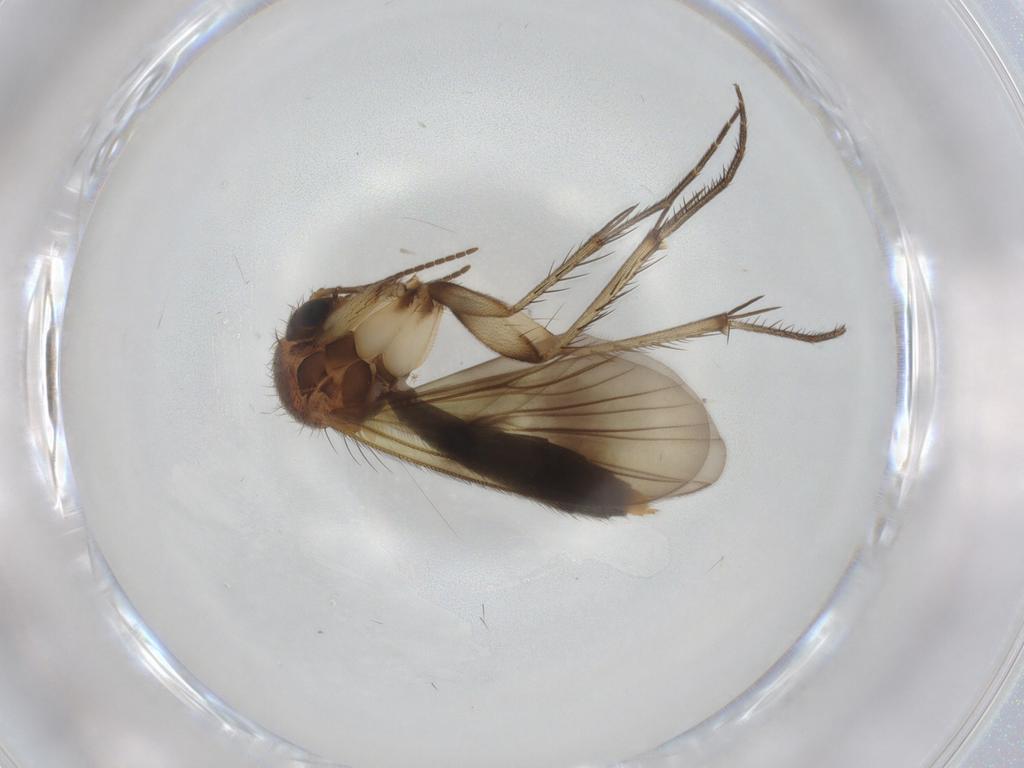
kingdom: Animalia
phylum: Arthropoda
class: Insecta
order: Diptera
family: Mycetophilidae
